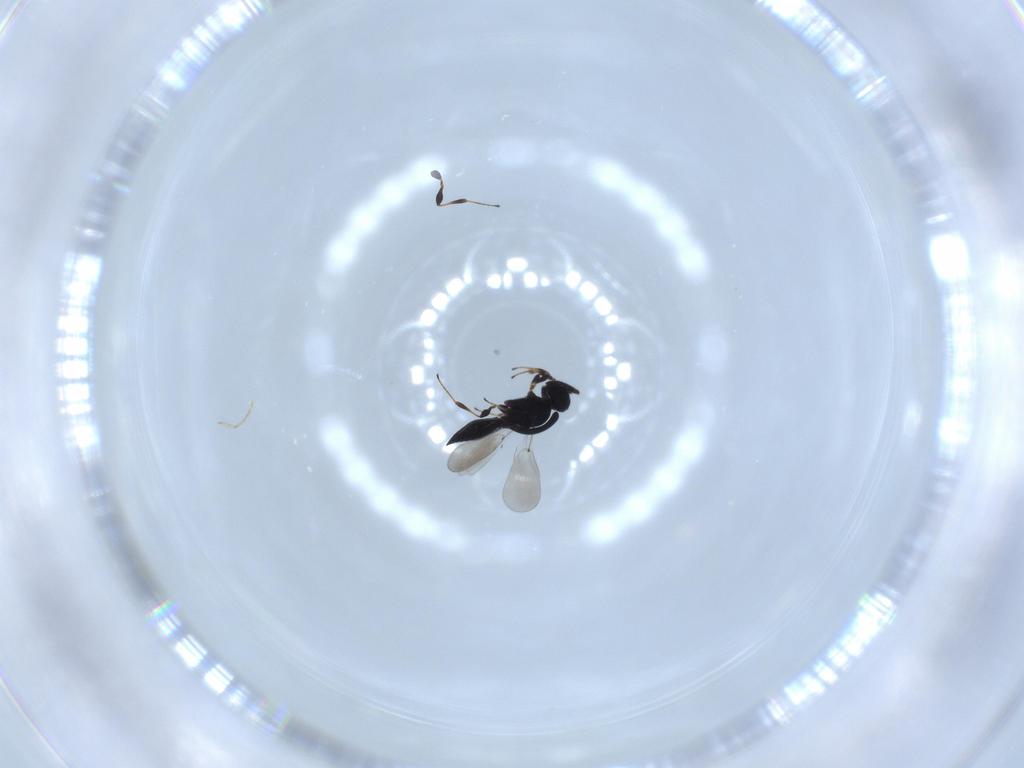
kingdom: Animalia
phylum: Arthropoda
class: Insecta
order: Hymenoptera
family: Platygastridae
